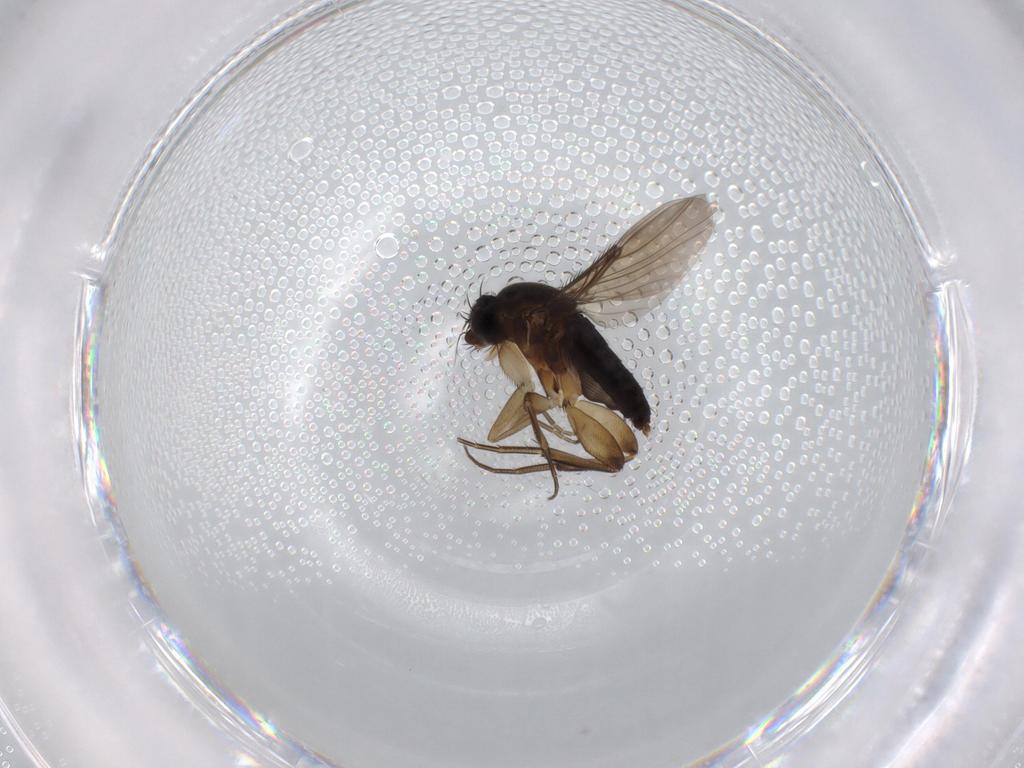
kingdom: Animalia
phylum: Arthropoda
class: Insecta
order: Diptera
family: Phoridae
